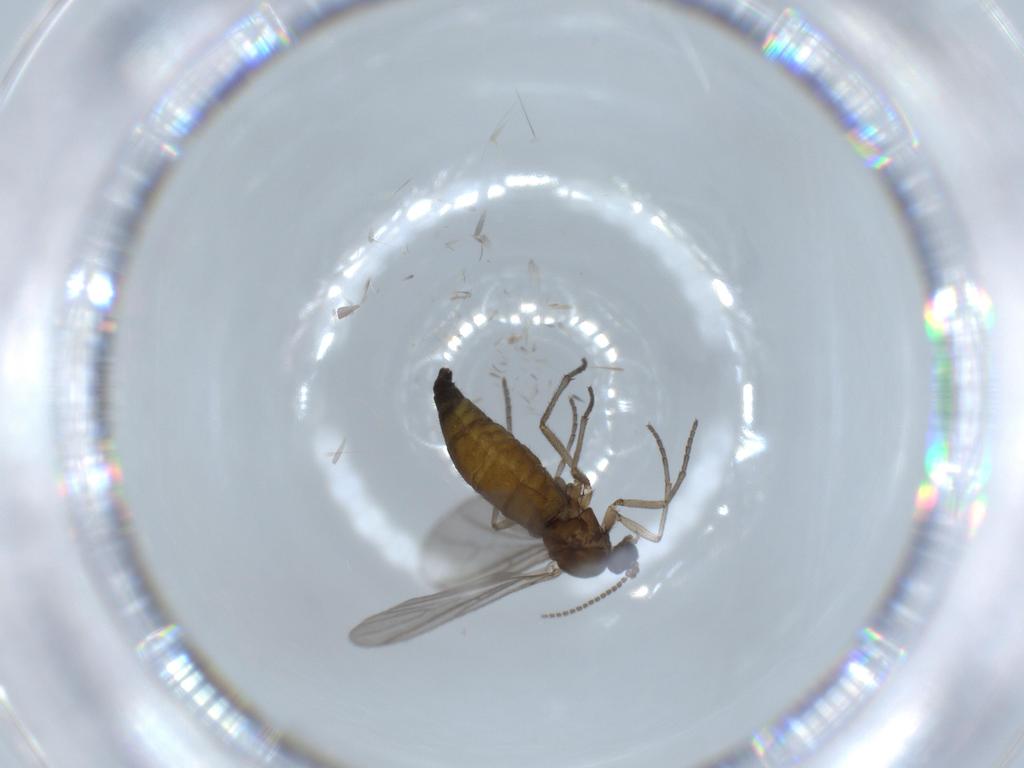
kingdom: Animalia
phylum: Arthropoda
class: Insecta
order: Diptera
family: Sciaridae
